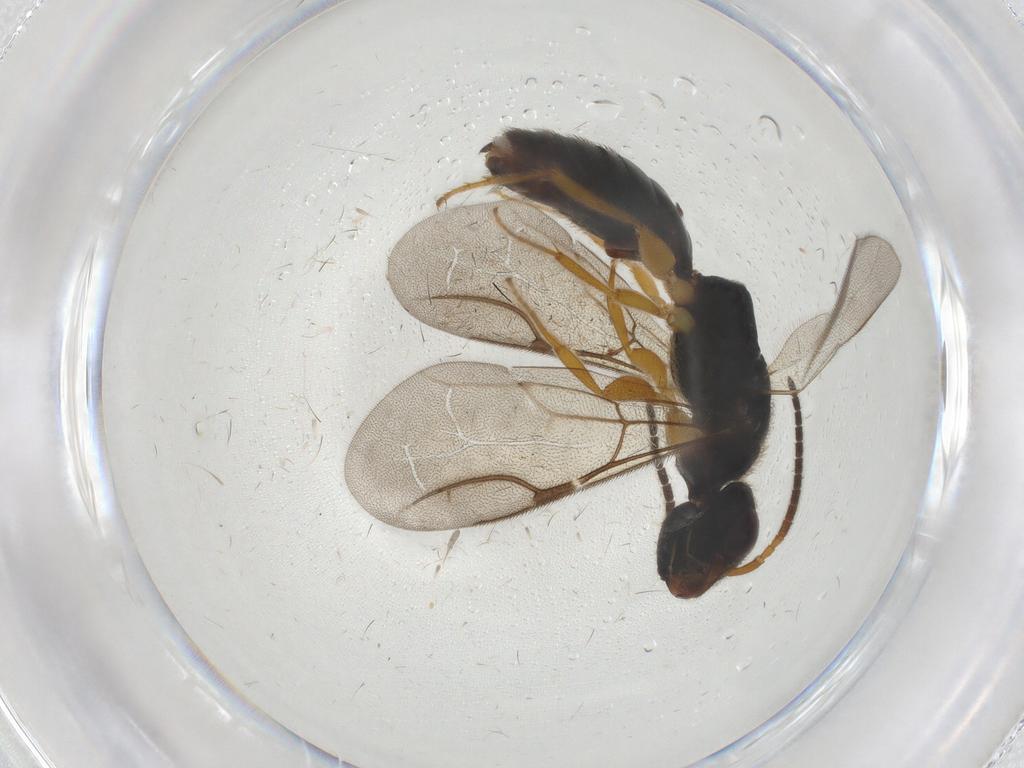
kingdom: Animalia
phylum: Arthropoda
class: Insecta
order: Hymenoptera
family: Bethylidae
